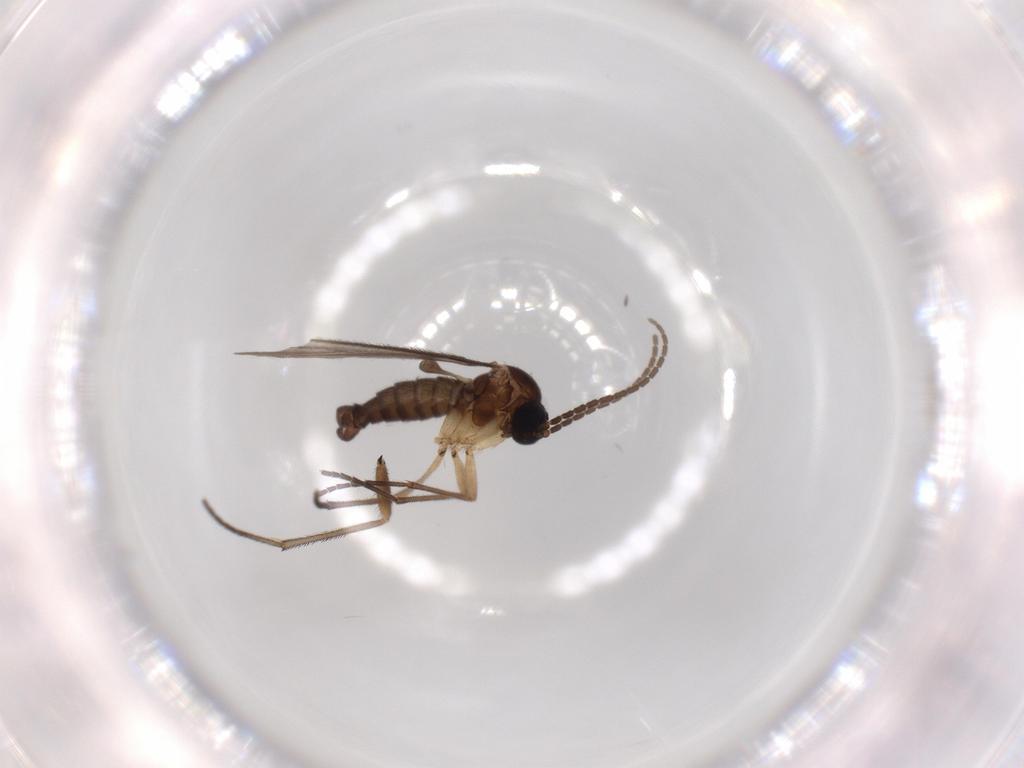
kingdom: Animalia
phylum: Arthropoda
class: Insecta
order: Diptera
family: Sciaridae
